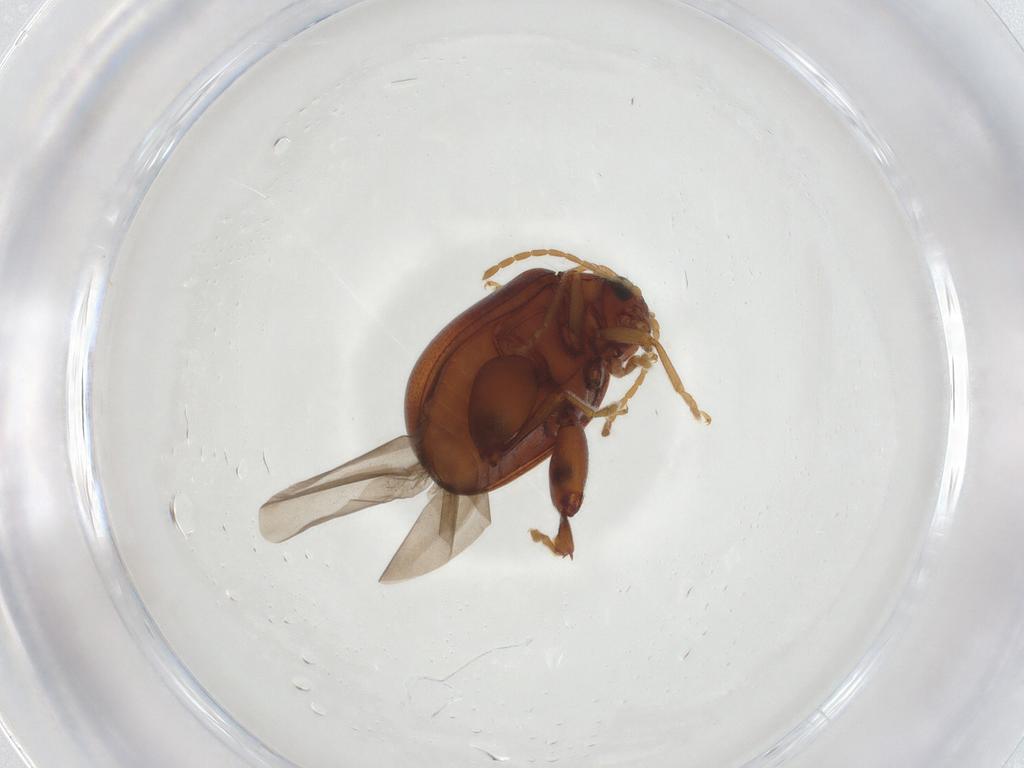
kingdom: Animalia
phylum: Arthropoda
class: Insecta
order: Coleoptera
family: Chrysomelidae
